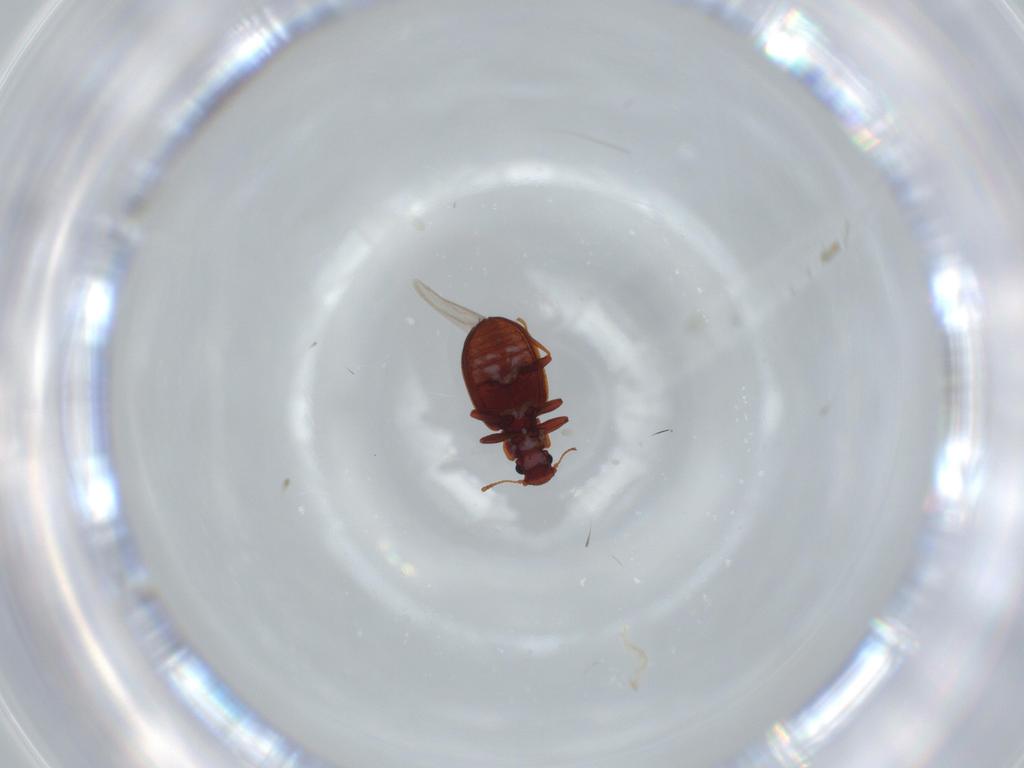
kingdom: Animalia
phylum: Arthropoda
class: Insecta
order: Coleoptera
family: Latridiidae
